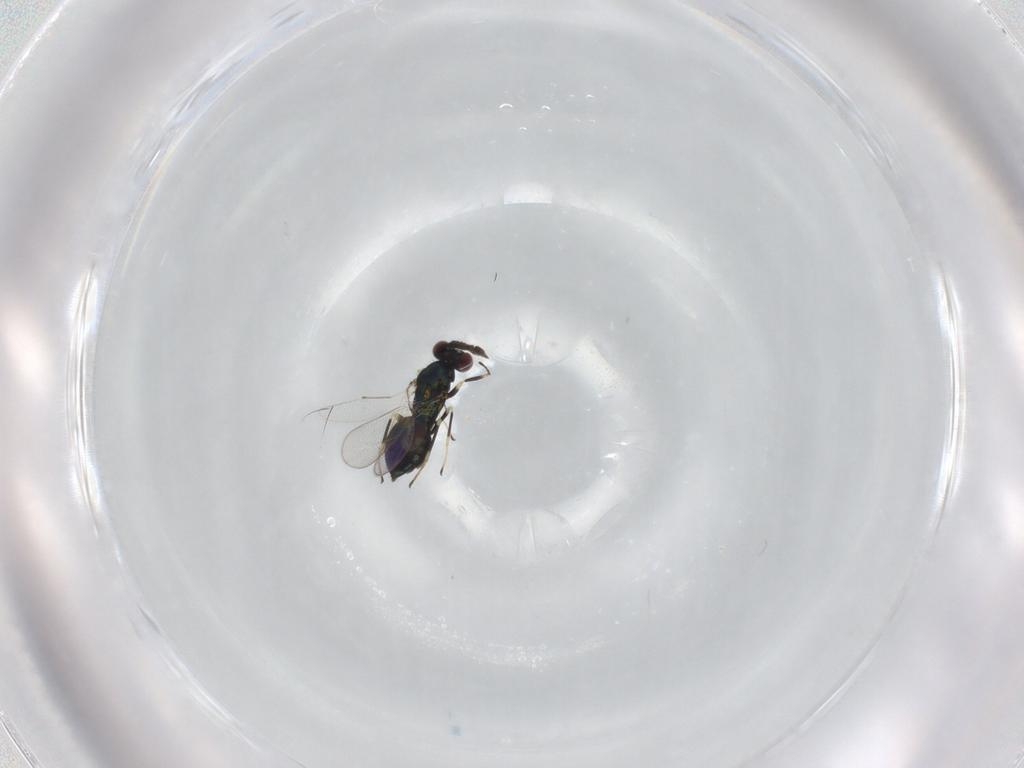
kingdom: Animalia
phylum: Arthropoda
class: Insecta
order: Hymenoptera
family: Eulophidae
